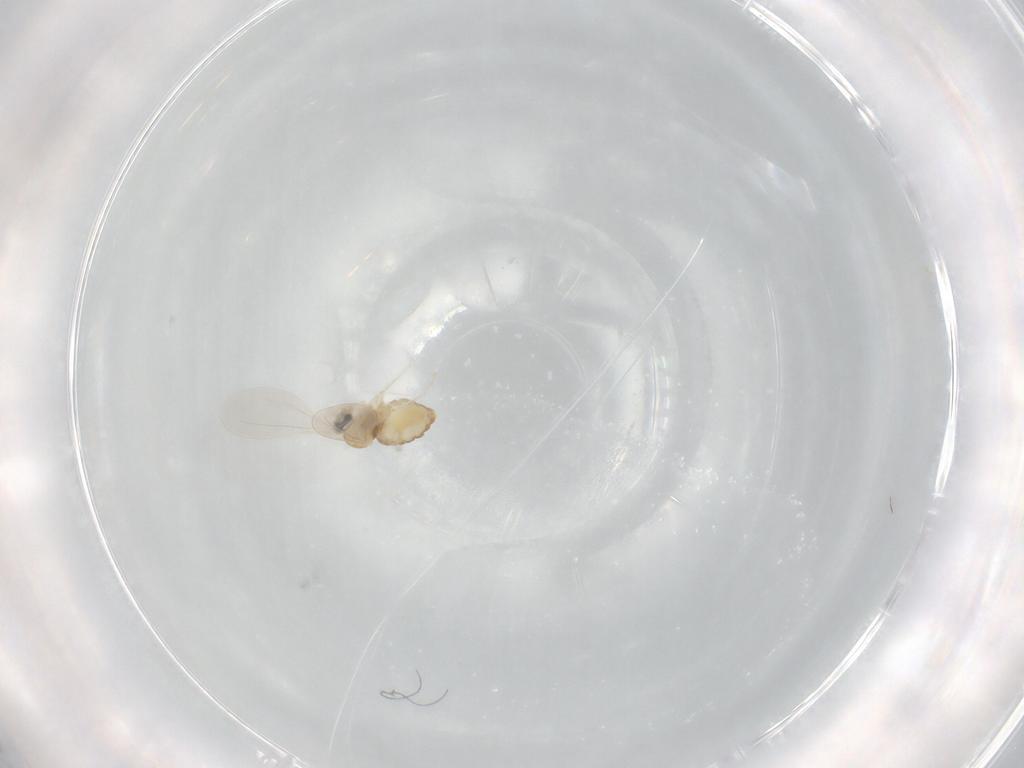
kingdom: Animalia
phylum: Arthropoda
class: Insecta
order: Diptera
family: Cecidomyiidae
